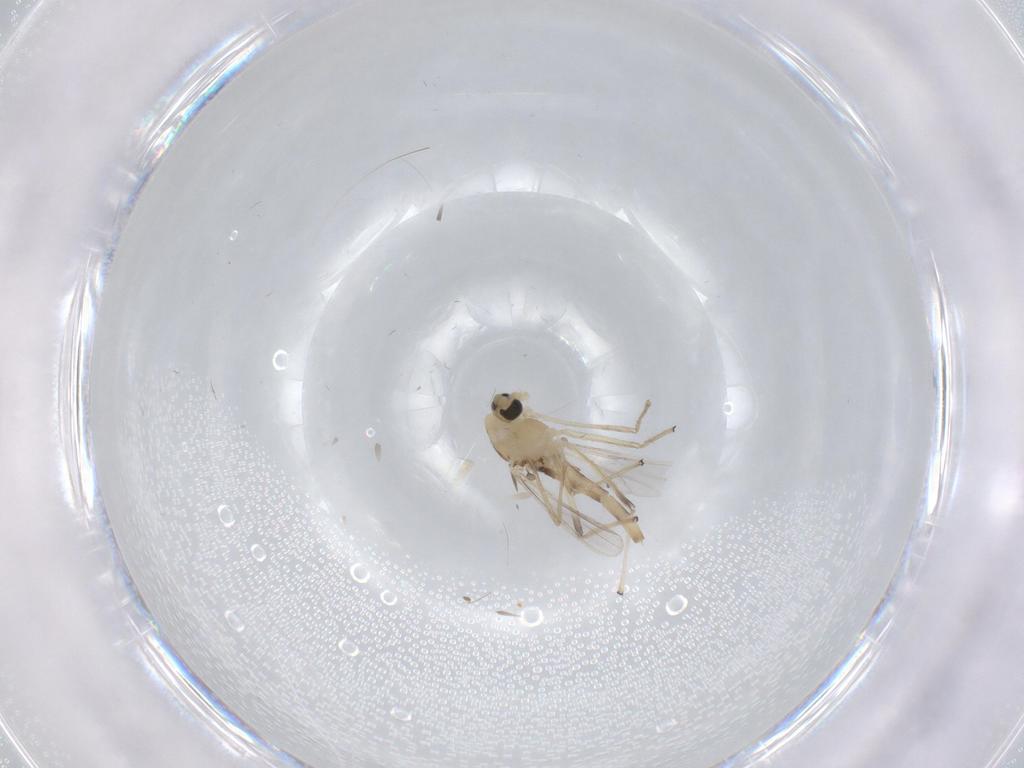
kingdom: Animalia
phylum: Arthropoda
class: Insecta
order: Diptera
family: Chironomidae
